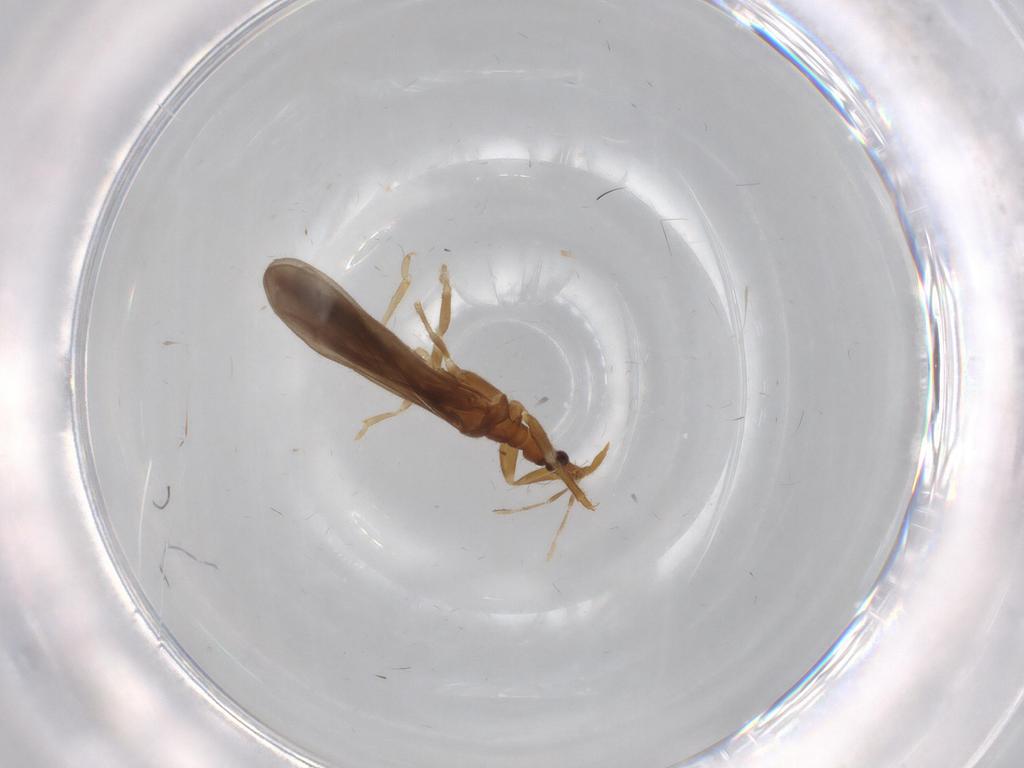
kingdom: Animalia
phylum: Arthropoda
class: Insecta
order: Hemiptera
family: Enicocephalidae
